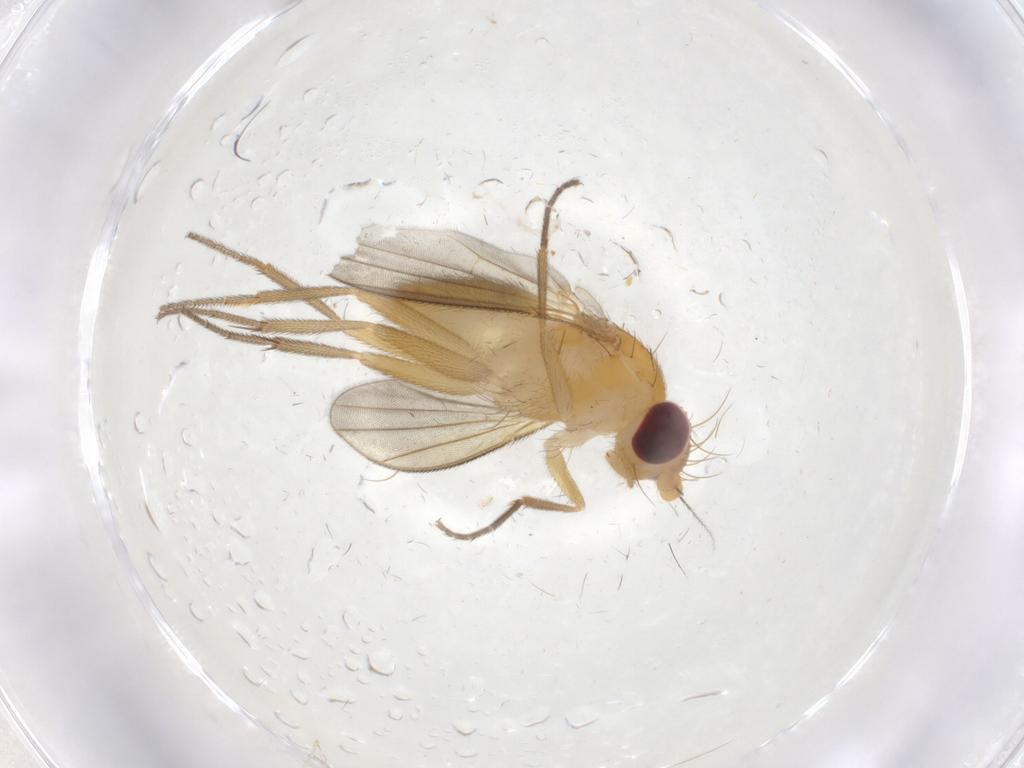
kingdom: Animalia
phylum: Arthropoda
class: Insecta
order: Diptera
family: Clusiidae
